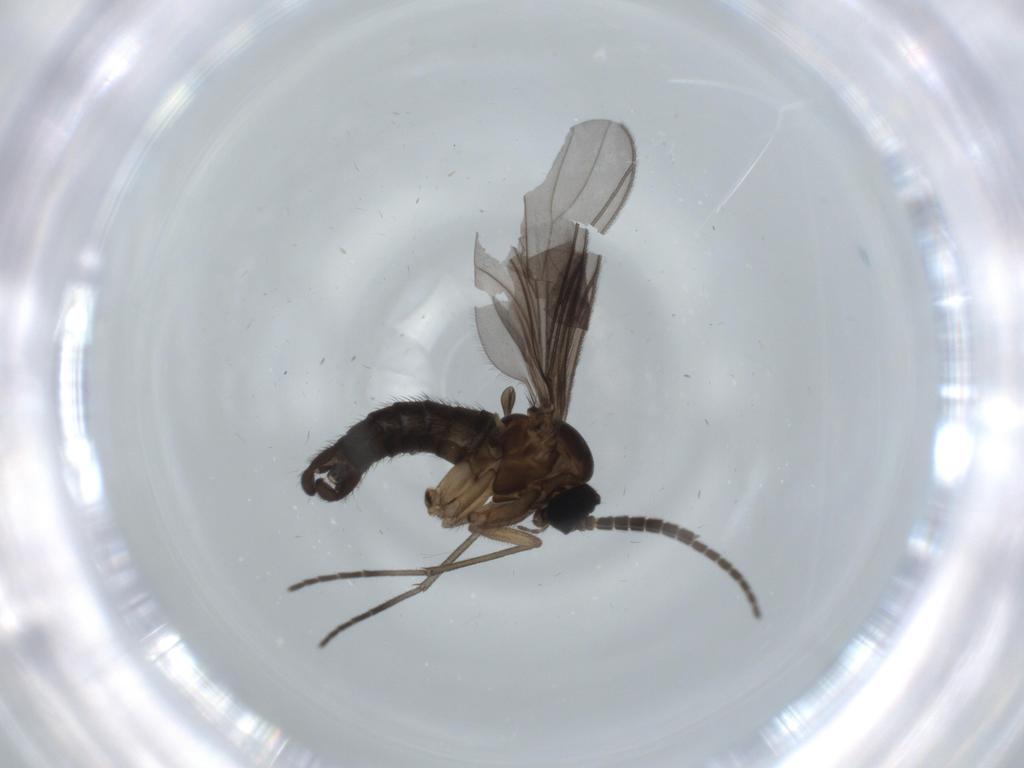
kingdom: Animalia
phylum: Arthropoda
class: Insecta
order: Diptera
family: Sciaridae
